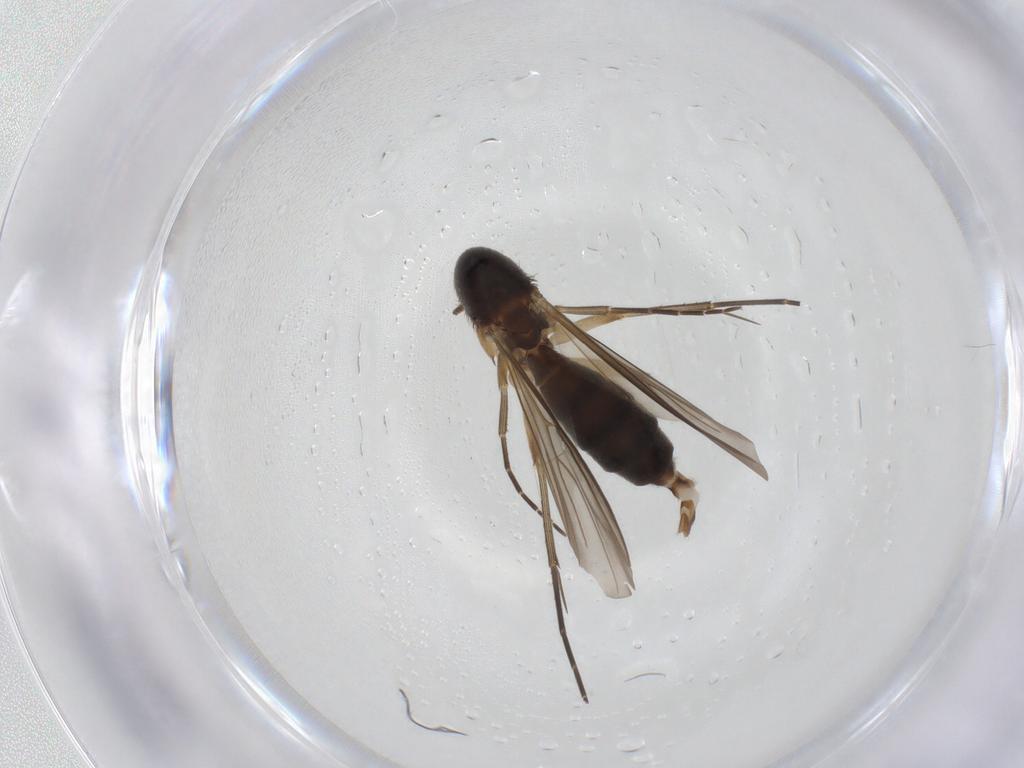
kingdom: Animalia
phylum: Arthropoda
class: Insecta
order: Diptera
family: Mycetophilidae
